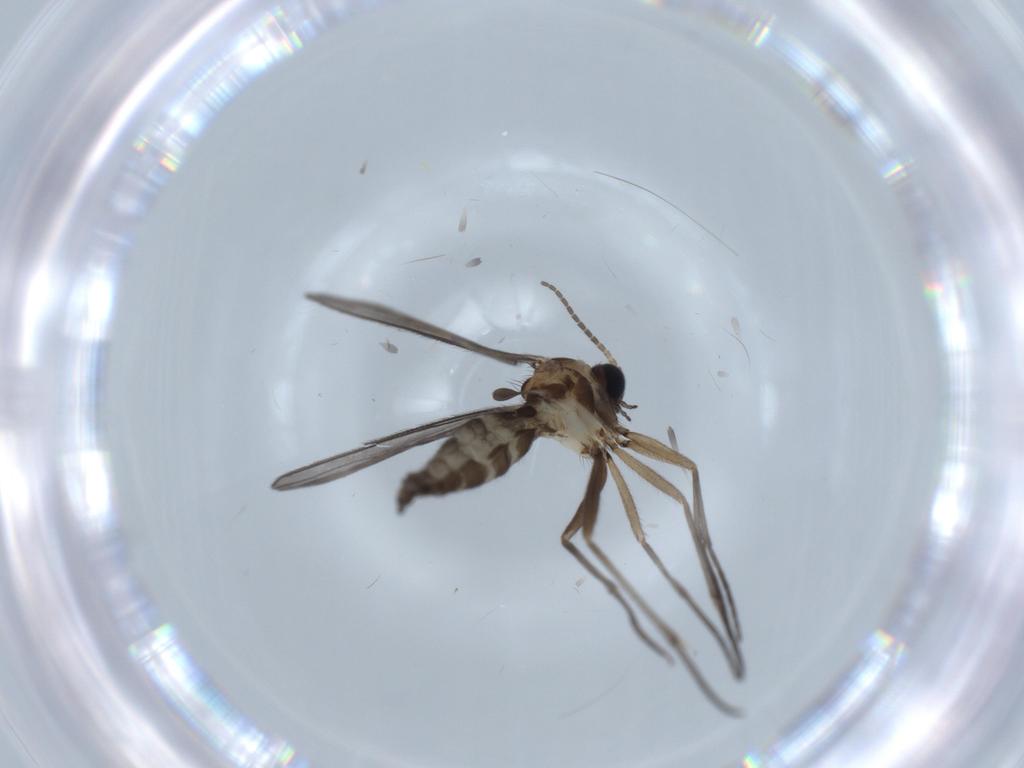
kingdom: Animalia
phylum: Arthropoda
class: Insecta
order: Diptera
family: Sciaridae
